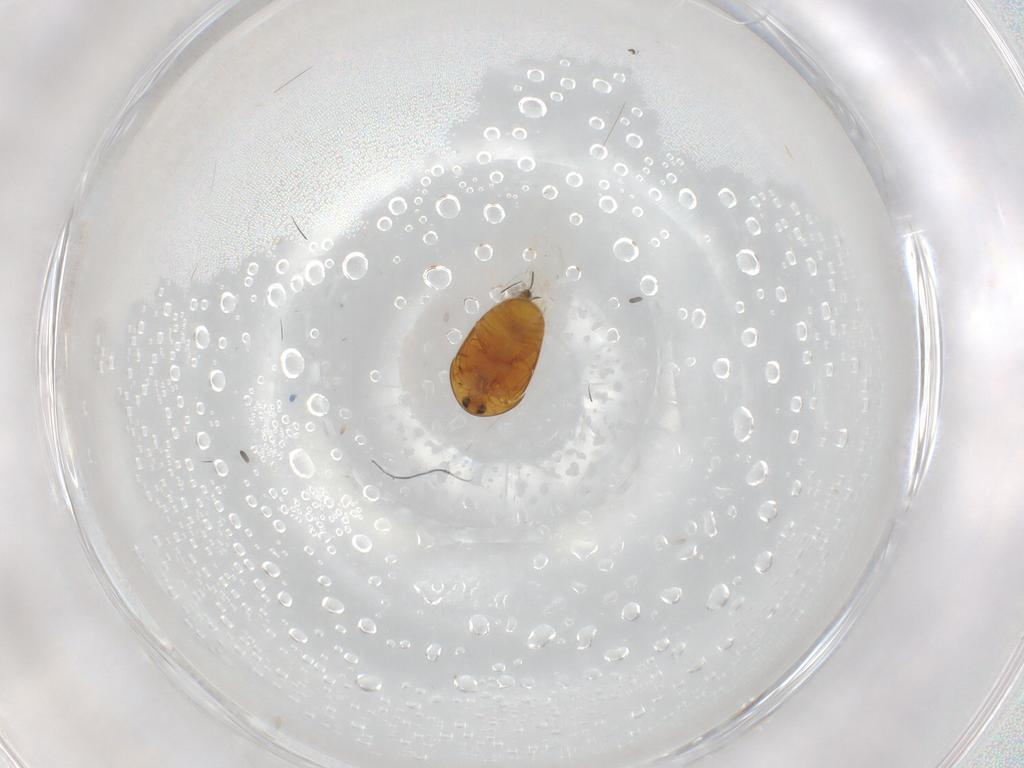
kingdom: Animalia
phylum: Arthropoda
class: Insecta
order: Coleoptera
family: Corylophidae
